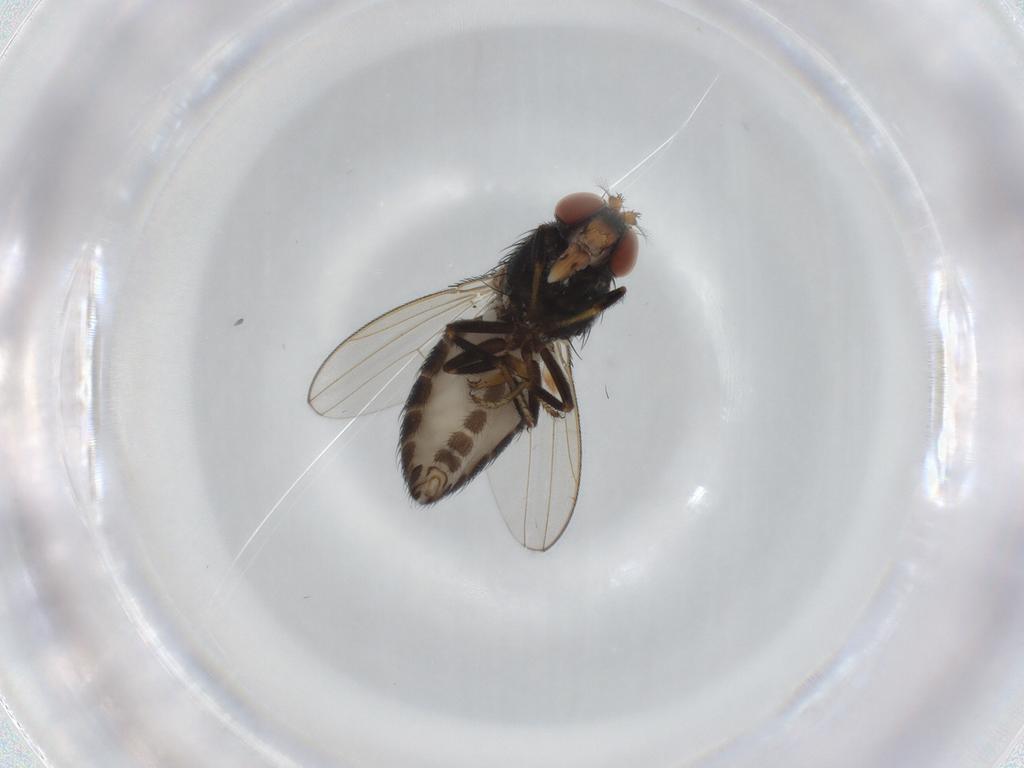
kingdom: Animalia
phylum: Arthropoda
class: Insecta
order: Diptera
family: Ephydridae
